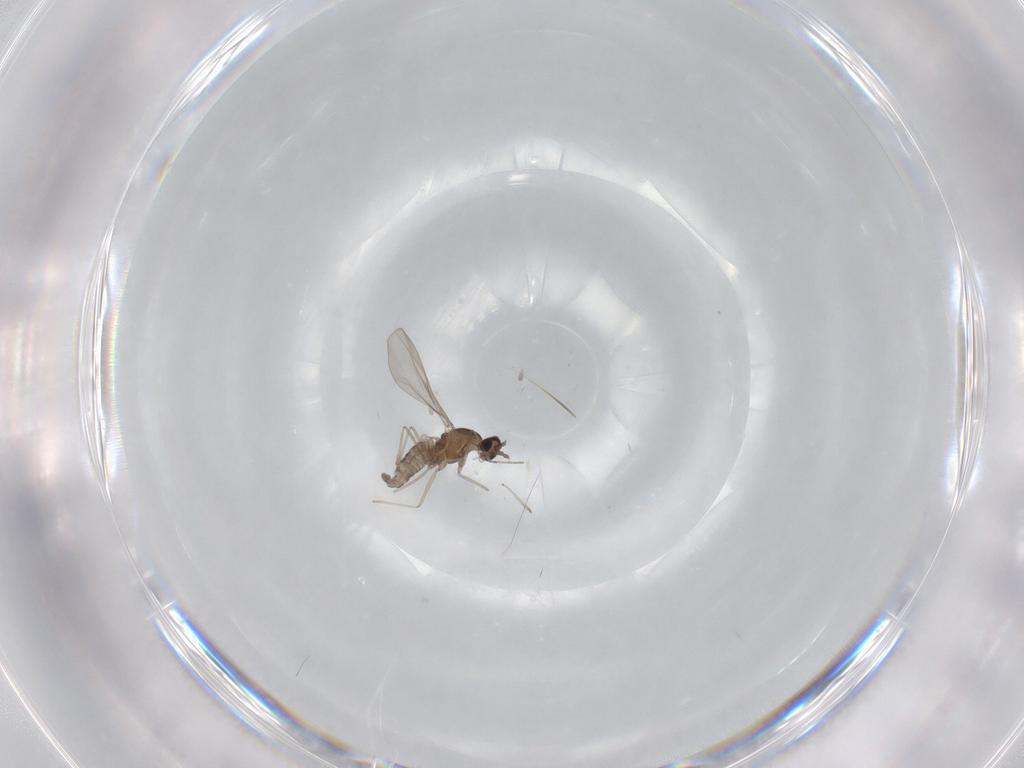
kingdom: Animalia
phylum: Arthropoda
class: Insecta
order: Diptera
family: Limoniidae
